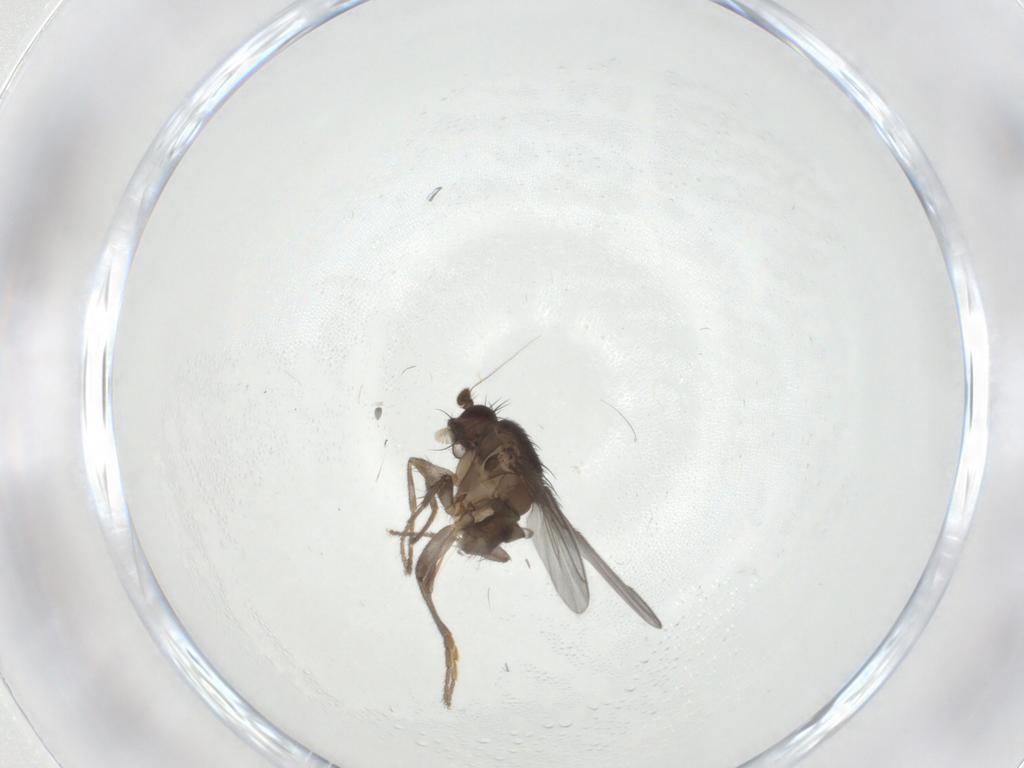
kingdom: Animalia
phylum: Arthropoda
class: Insecta
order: Diptera
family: Sphaeroceridae
